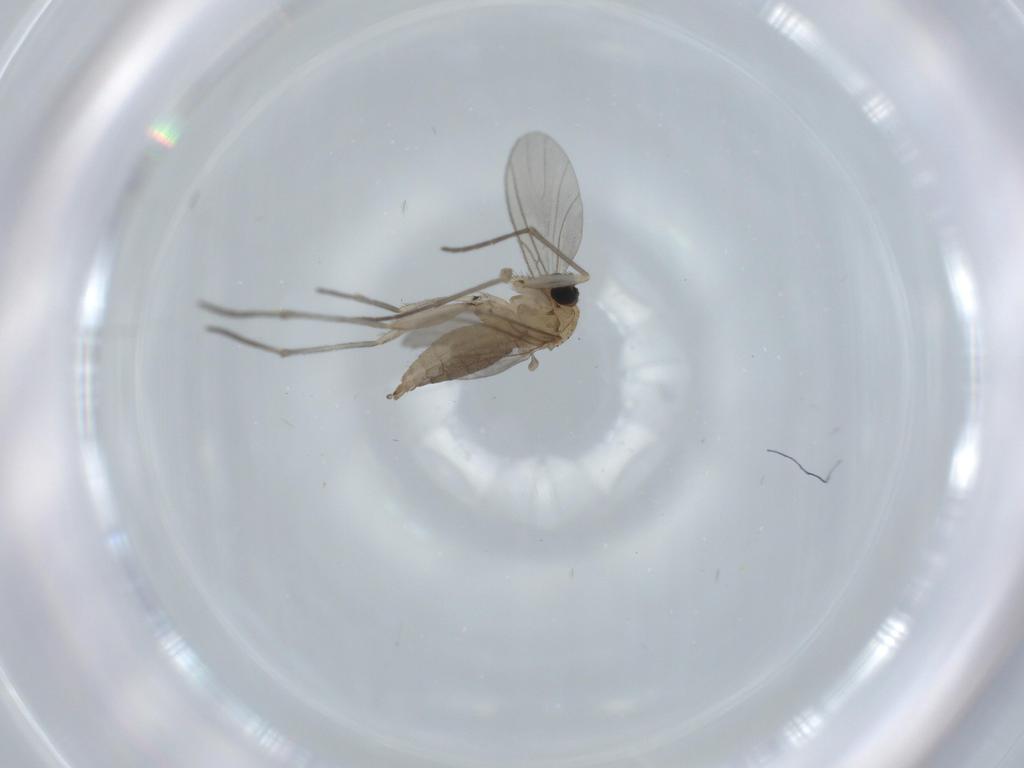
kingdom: Animalia
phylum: Arthropoda
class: Insecta
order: Diptera
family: Sciaridae
